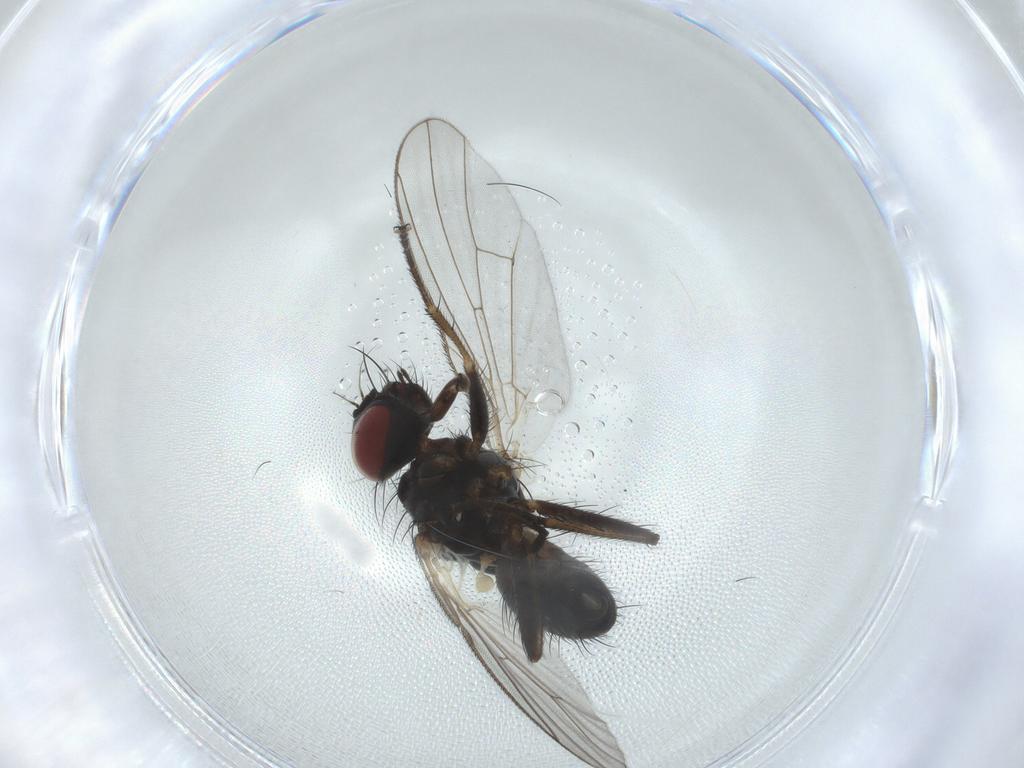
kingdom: Animalia
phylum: Arthropoda
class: Insecta
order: Diptera
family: Muscidae
